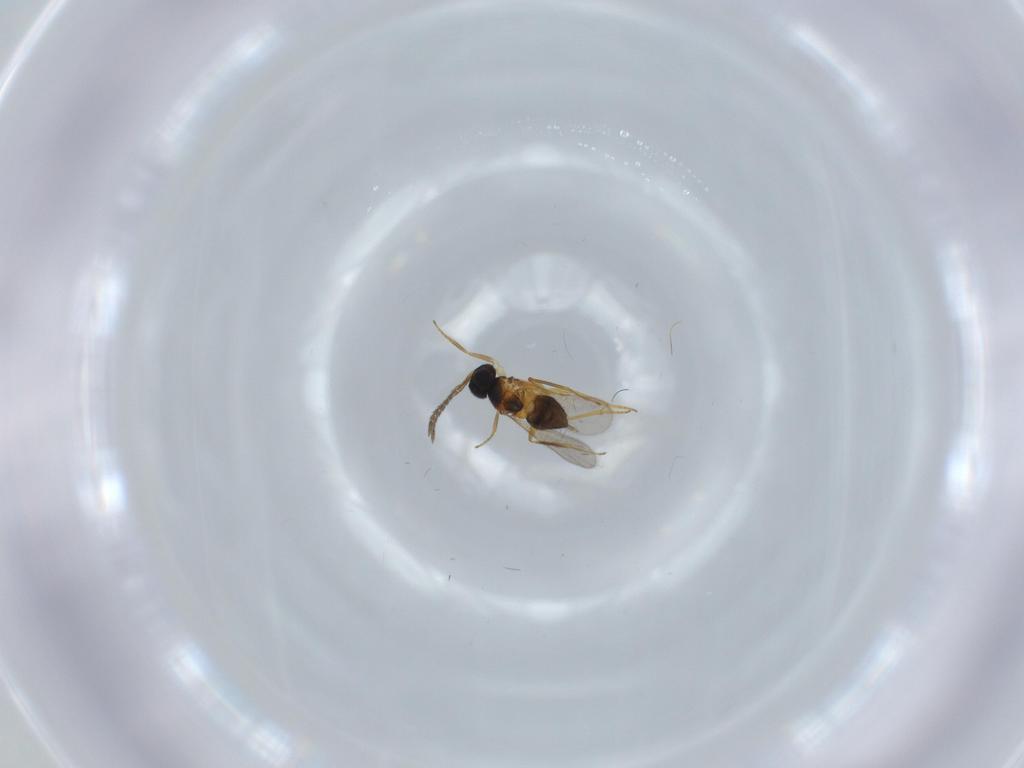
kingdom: Animalia
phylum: Arthropoda
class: Insecta
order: Hymenoptera
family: Encyrtidae
